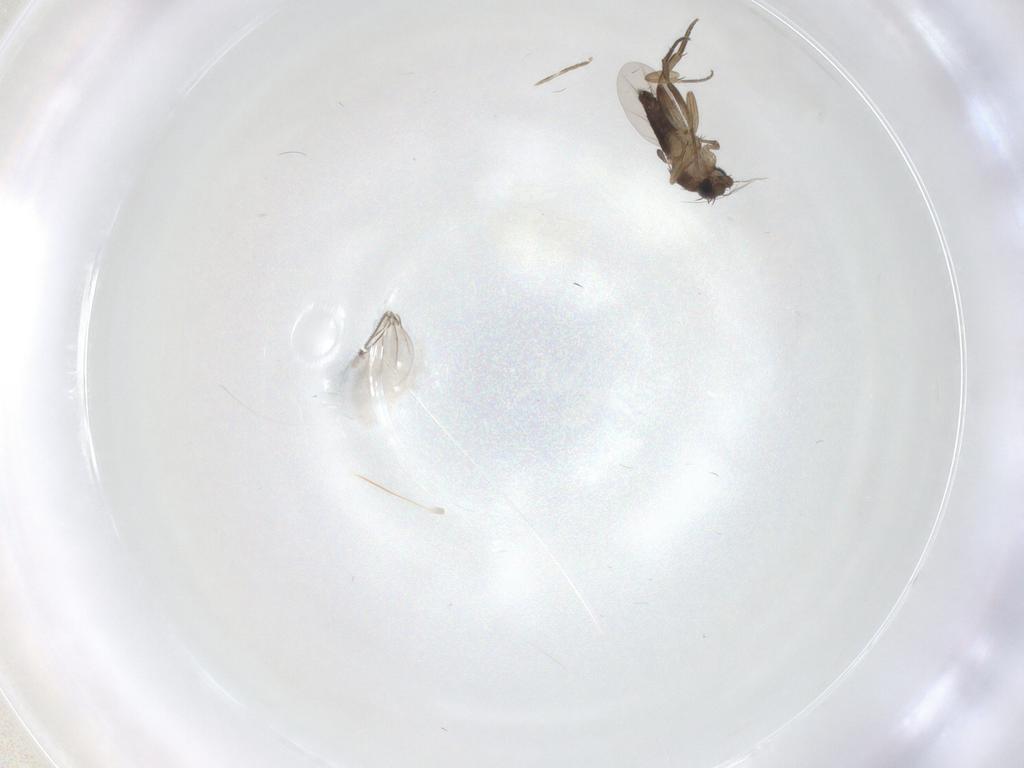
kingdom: Animalia
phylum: Arthropoda
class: Insecta
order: Diptera
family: Phoridae
